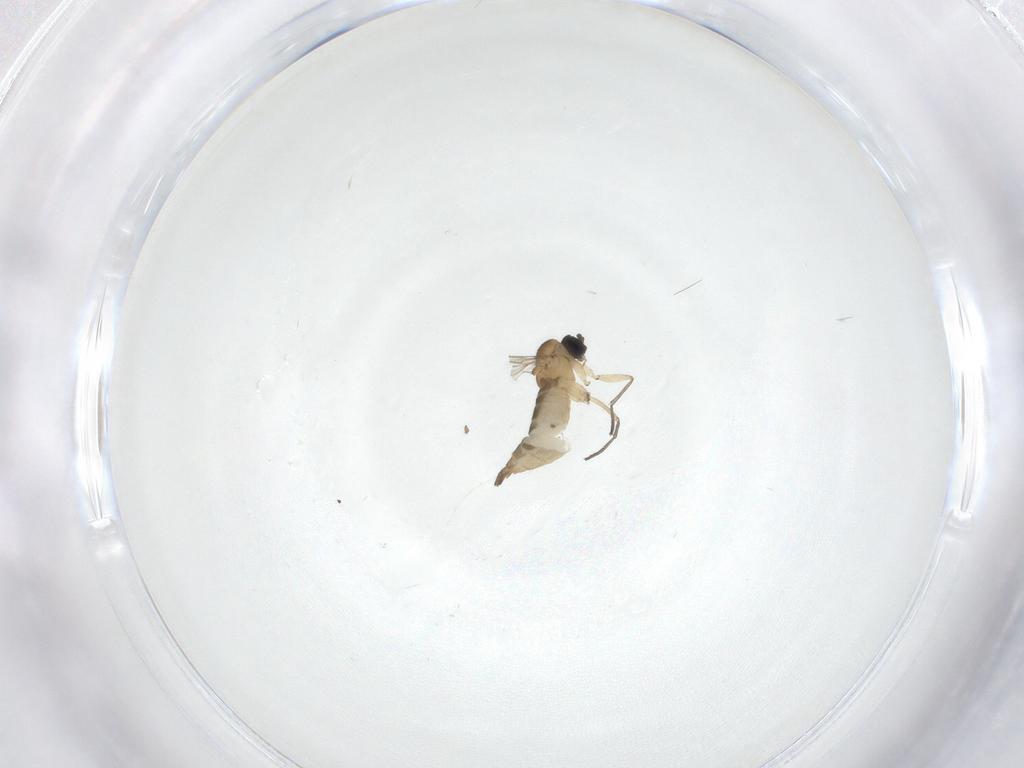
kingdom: Animalia
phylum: Arthropoda
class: Insecta
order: Diptera
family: Sciaridae
